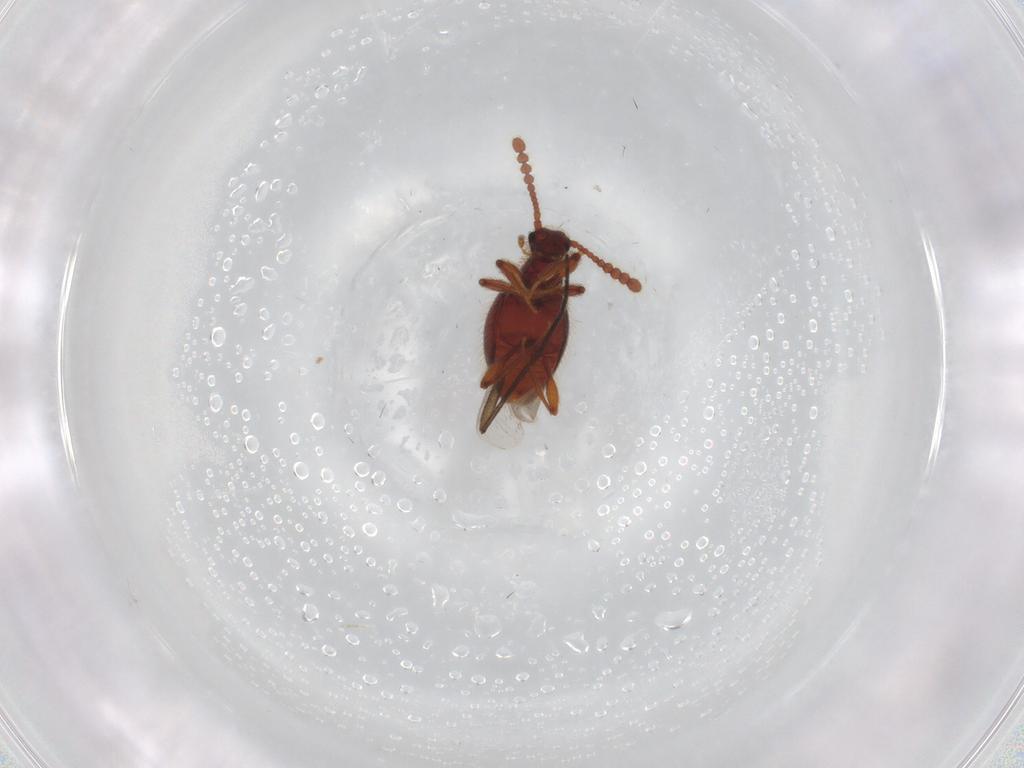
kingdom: Animalia
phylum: Arthropoda
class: Insecta
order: Coleoptera
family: Staphylinidae
